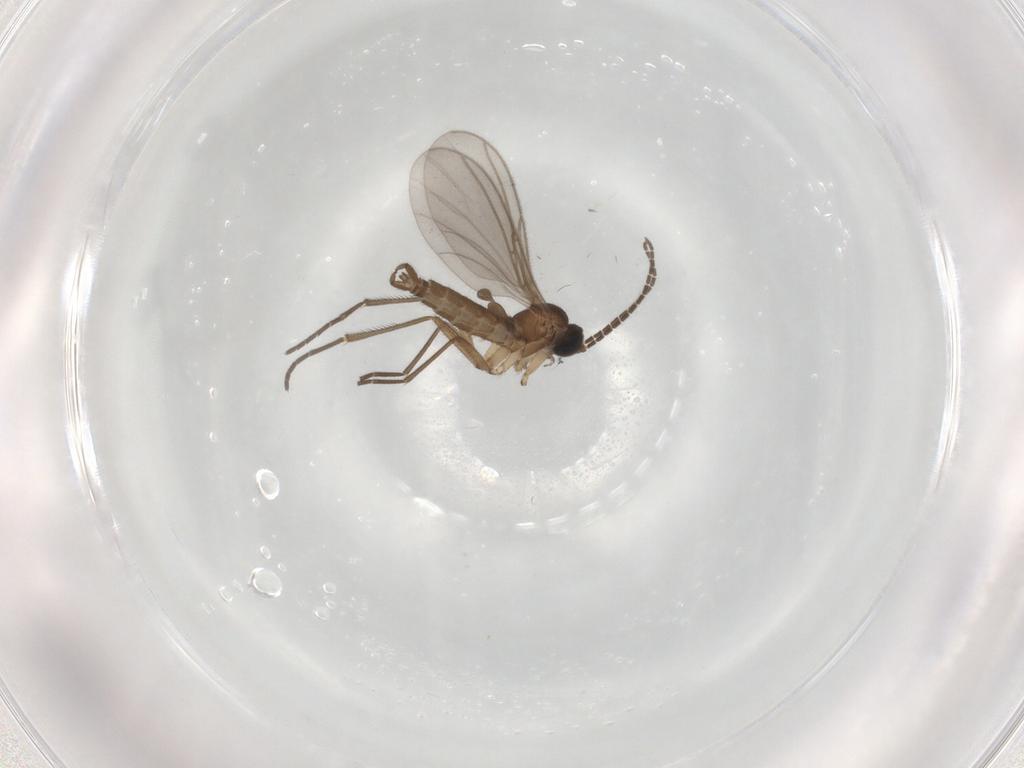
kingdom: Animalia
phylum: Arthropoda
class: Insecta
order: Diptera
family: Sciaridae
